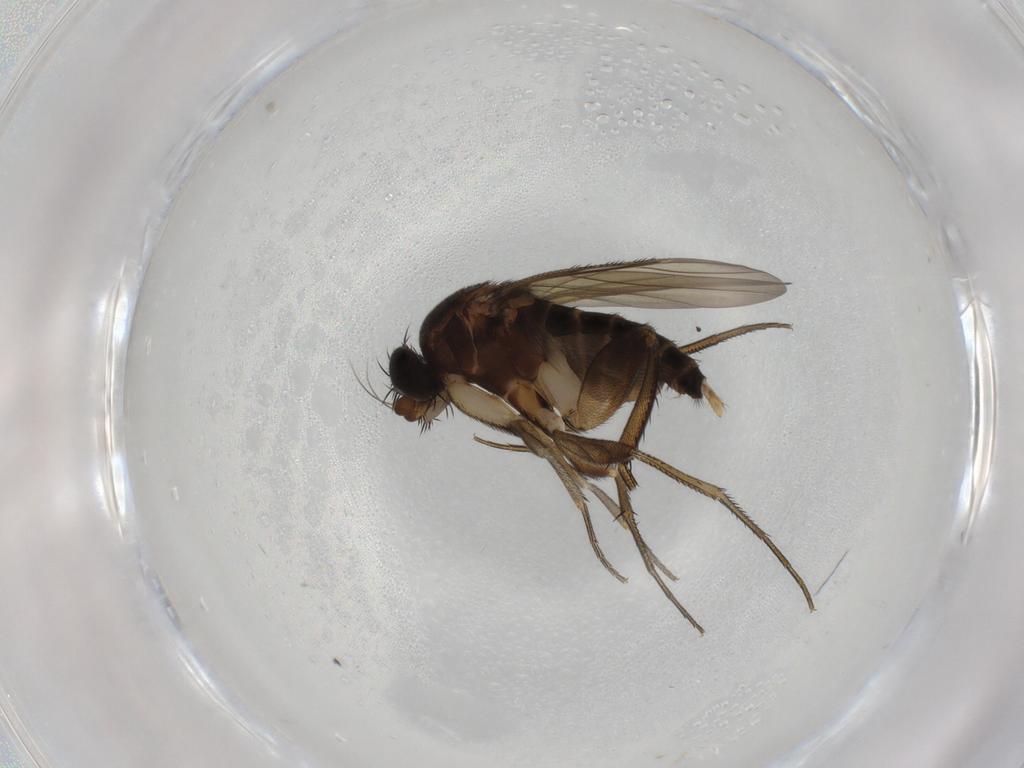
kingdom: Animalia
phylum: Arthropoda
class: Insecta
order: Diptera
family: Phoridae
